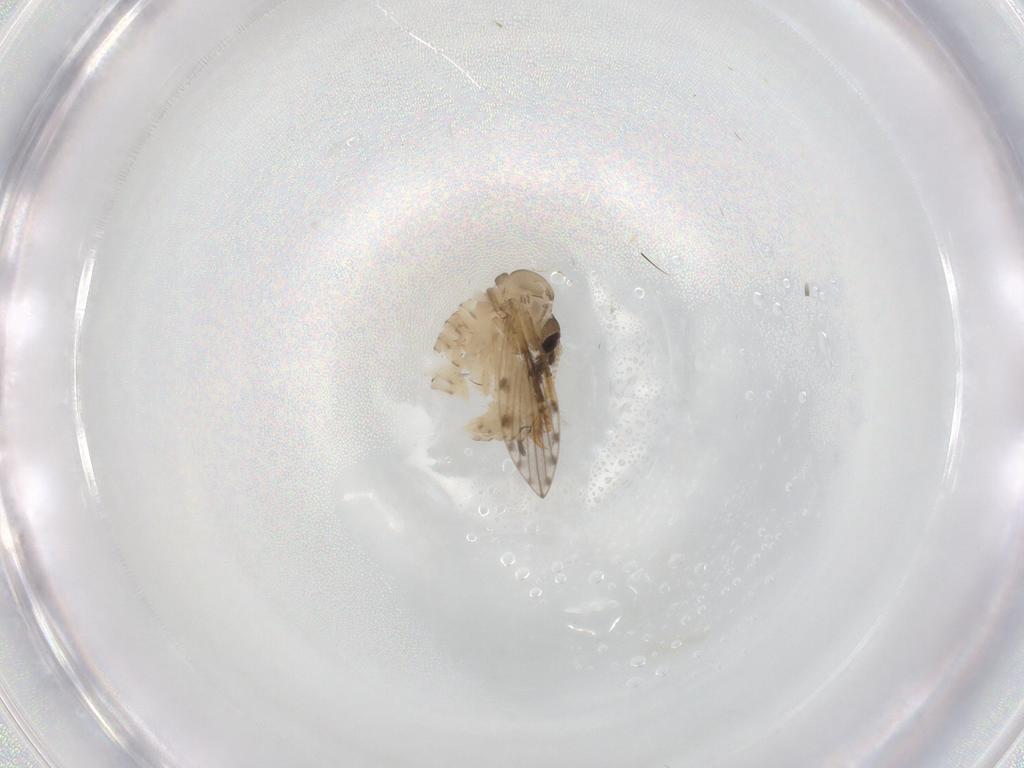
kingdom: Animalia
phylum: Arthropoda
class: Insecta
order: Diptera
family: Psychodidae
